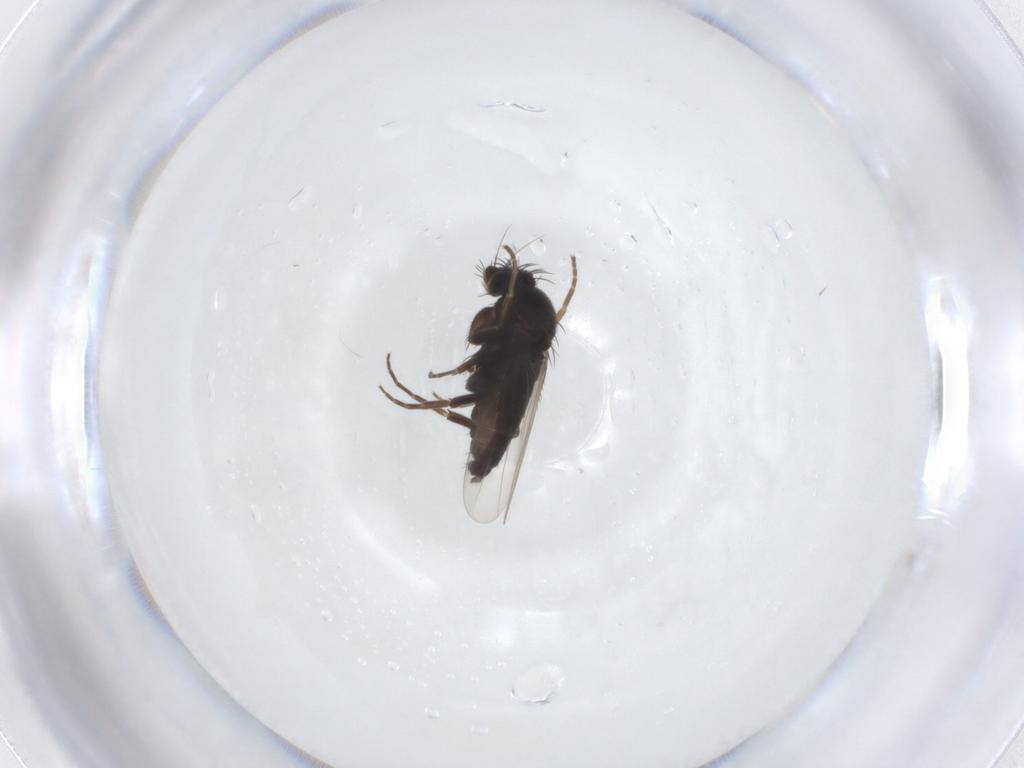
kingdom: Animalia
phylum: Arthropoda
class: Insecta
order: Diptera
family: Phoridae
